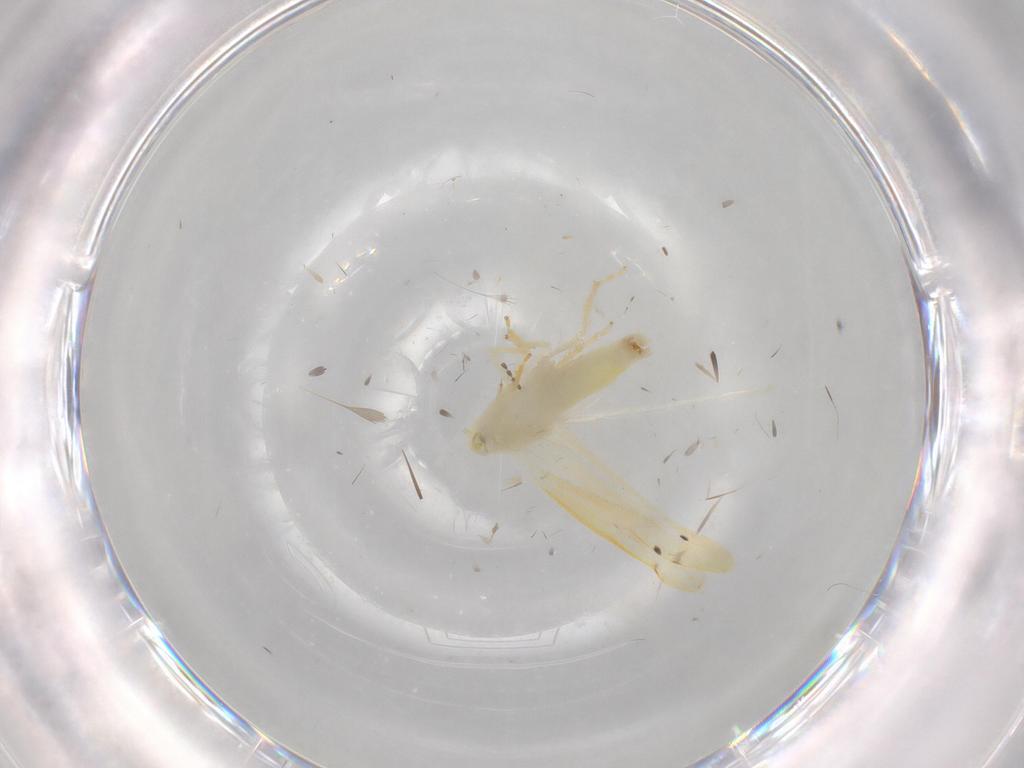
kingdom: Animalia
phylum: Arthropoda
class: Insecta
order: Hemiptera
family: Cicadellidae
